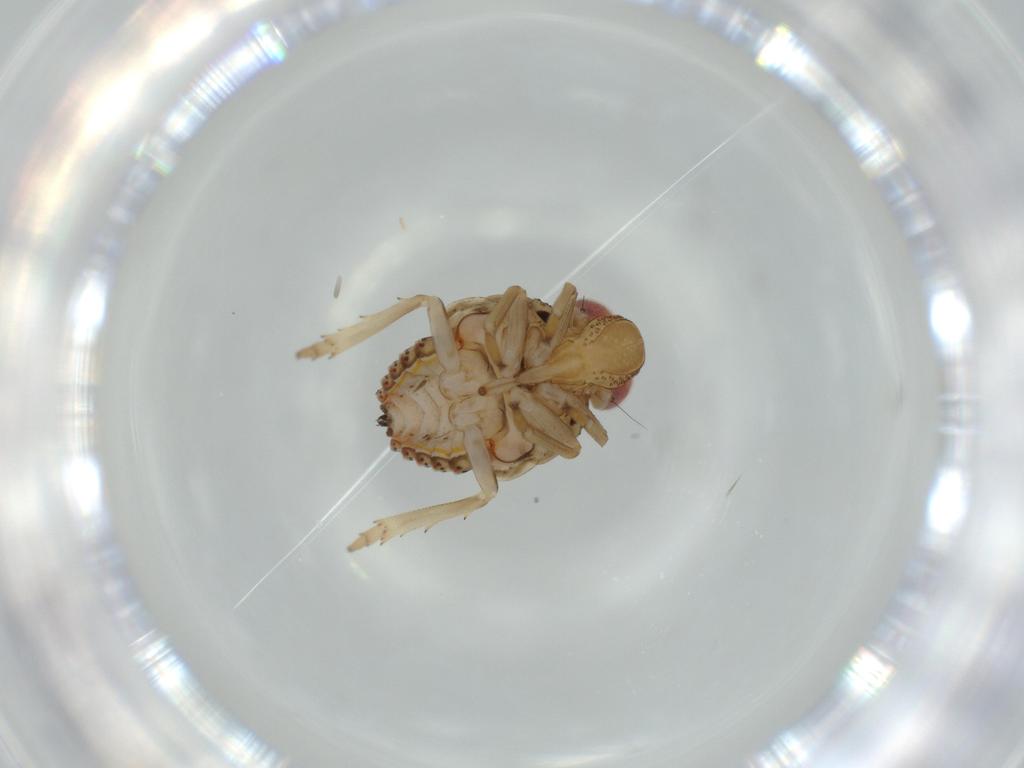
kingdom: Animalia
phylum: Arthropoda
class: Insecta
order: Hemiptera
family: Issidae
